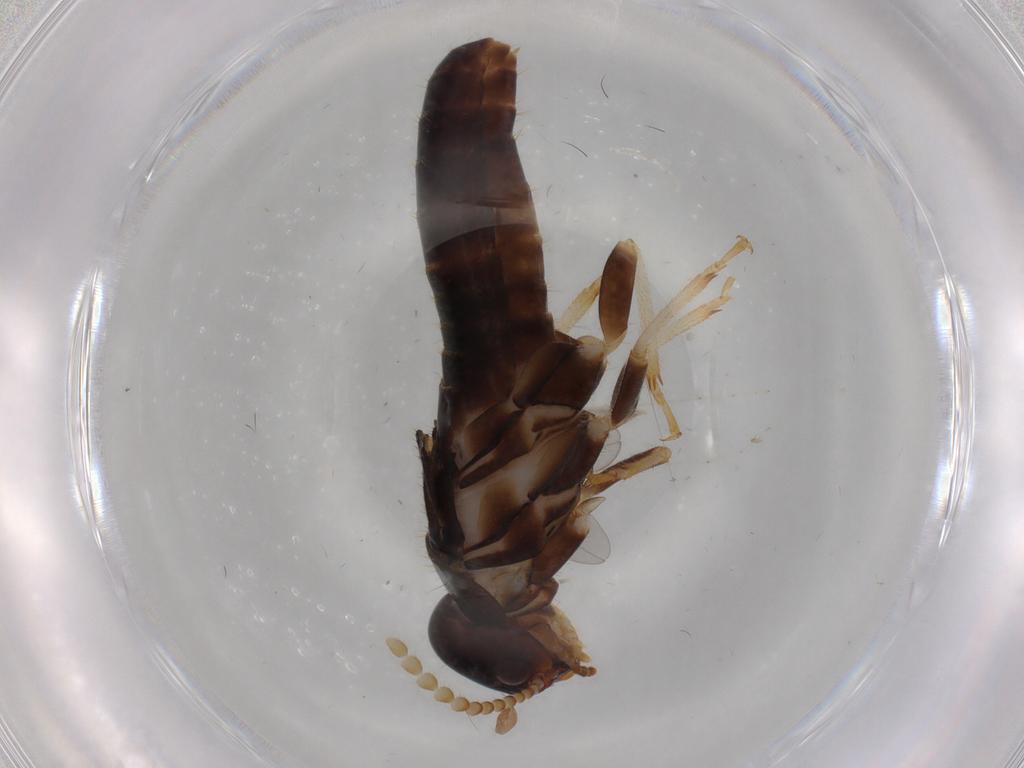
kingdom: Animalia
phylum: Arthropoda
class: Insecta
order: Blattodea
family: Kalotermitidae
